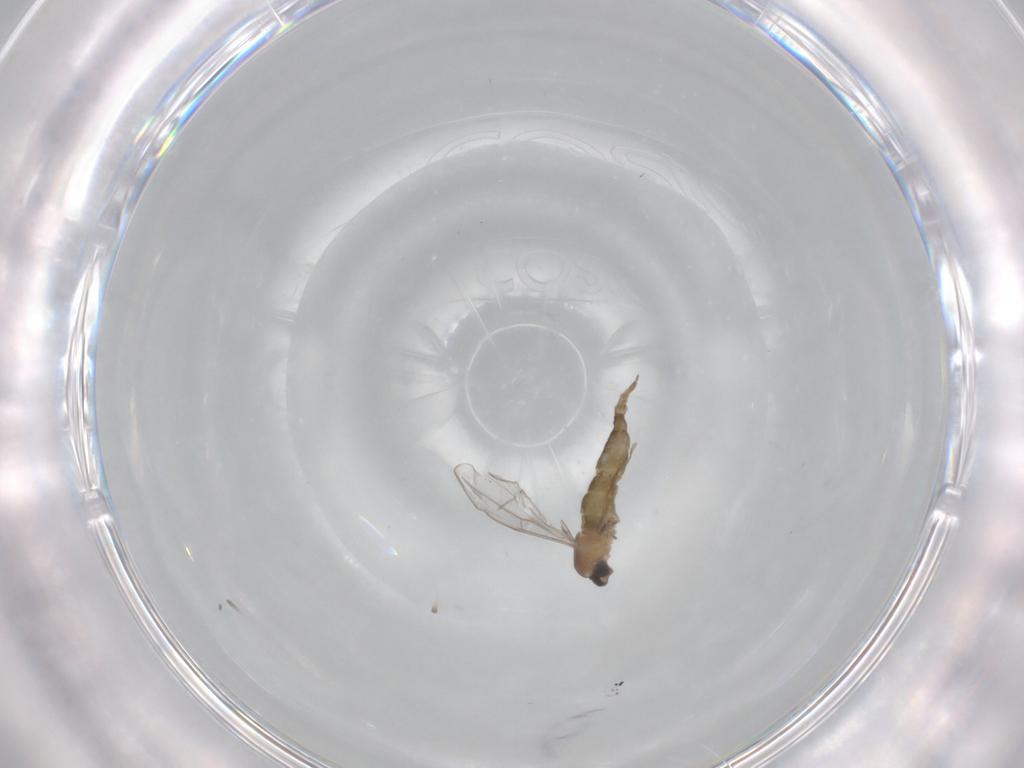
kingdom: Animalia
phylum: Arthropoda
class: Insecta
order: Diptera
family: Cecidomyiidae
